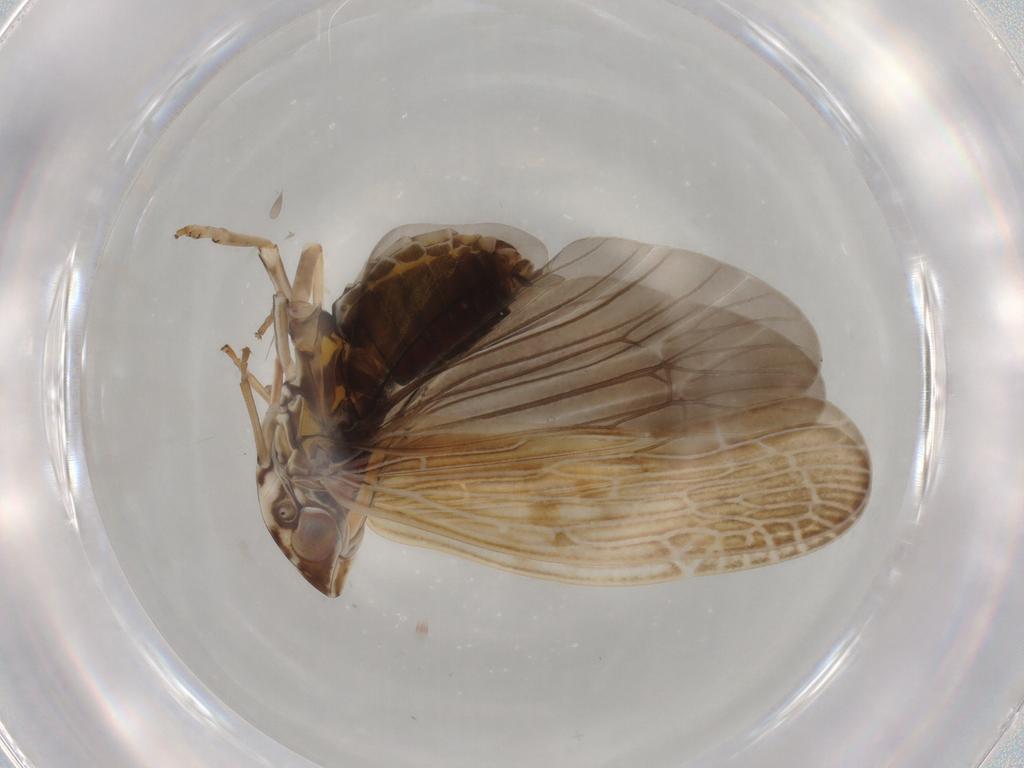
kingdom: Animalia
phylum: Arthropoda
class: Insecta
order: Hemiptera
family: Achilidae
